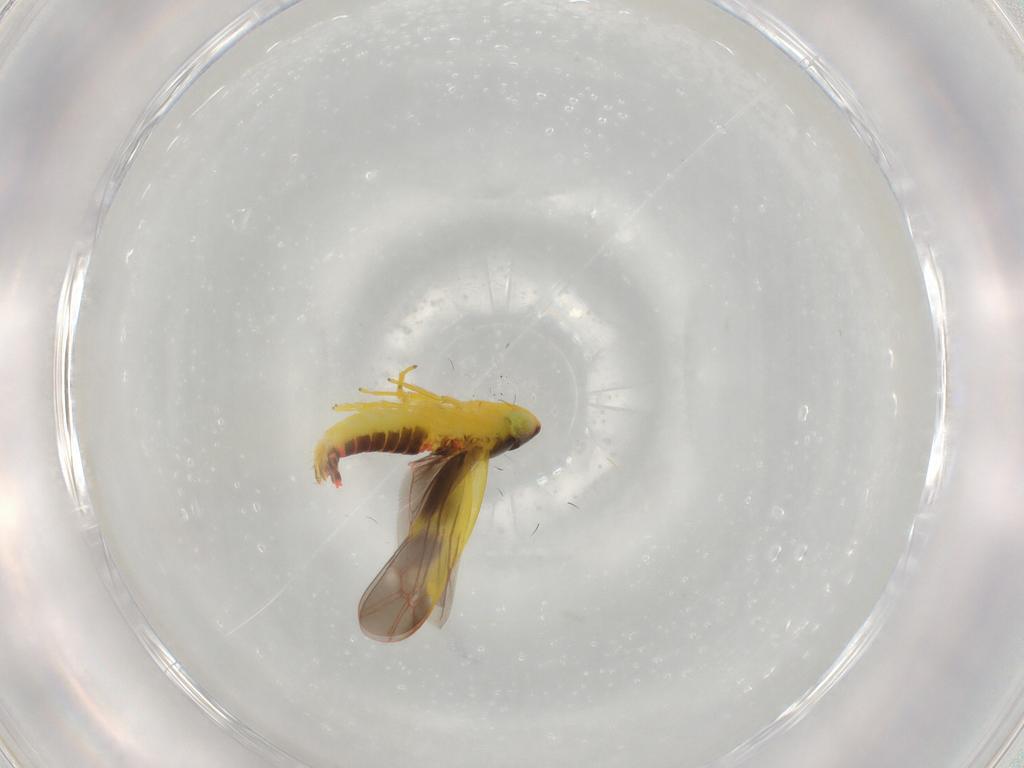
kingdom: Animalia
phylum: Arthropoda
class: Insecta
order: Hemiptera
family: Cicadellidae
